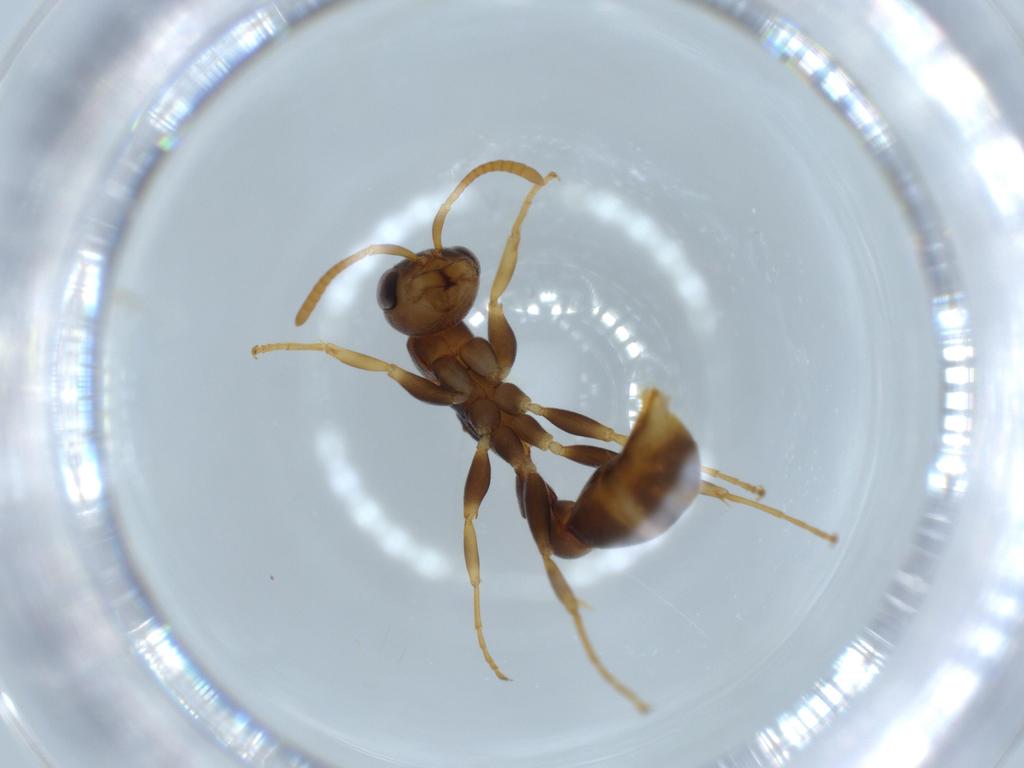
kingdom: Animalia
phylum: Arthropoda
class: Insecta
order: Hymenoptera
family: Formicidae
